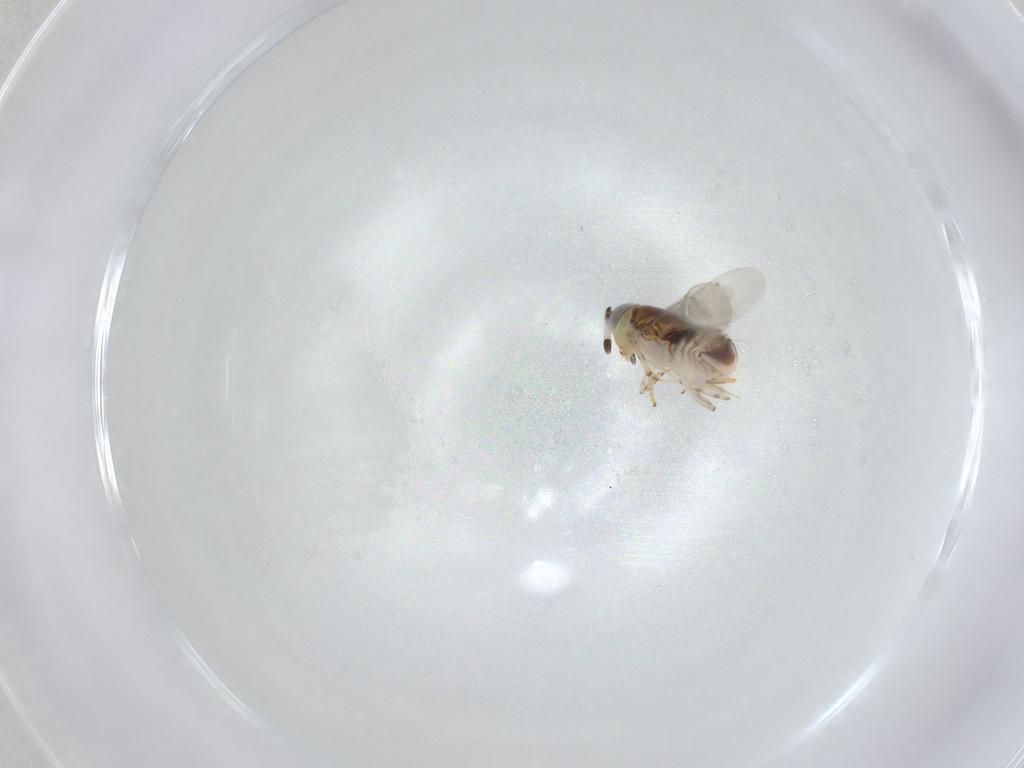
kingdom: Animalia
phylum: Arthropoda
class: Insecta
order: Hymenoptera
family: Encyrtidae
